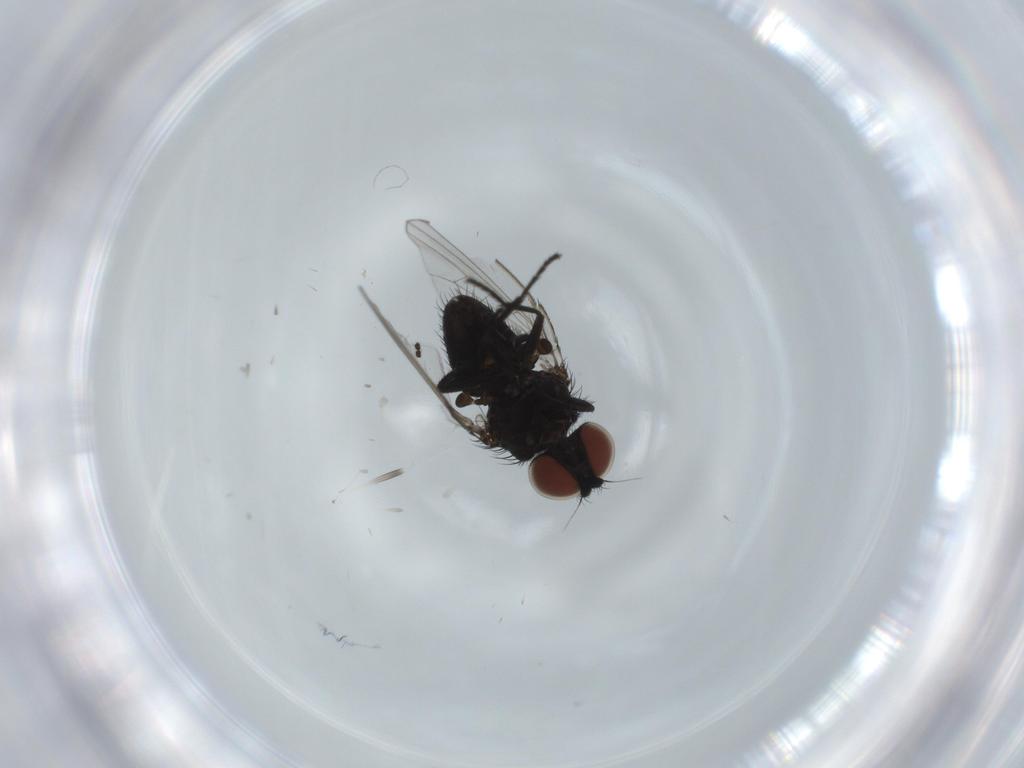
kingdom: Animalia
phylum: Arthropoda
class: Insecta
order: Diptera
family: Milichiidae
